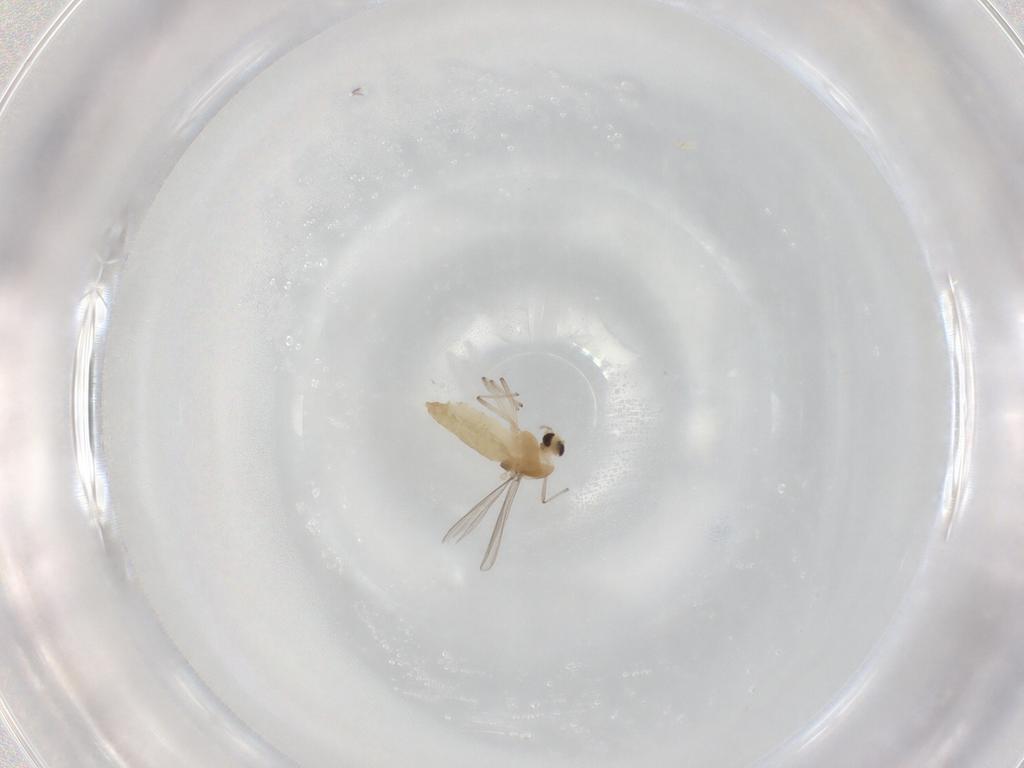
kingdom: Animalia
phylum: Arthropoda
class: Insecta
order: Diptera
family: Chironomidae
